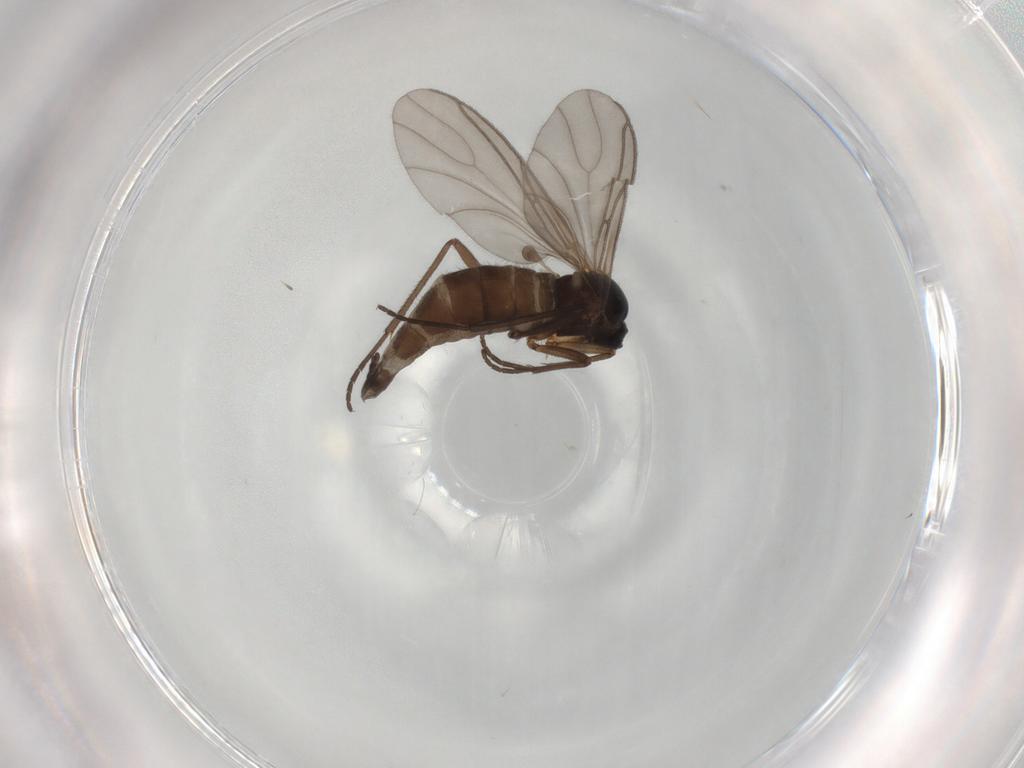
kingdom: Animalia
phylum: Arthropoda
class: Insecta
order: Diptera
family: Sciaridae
